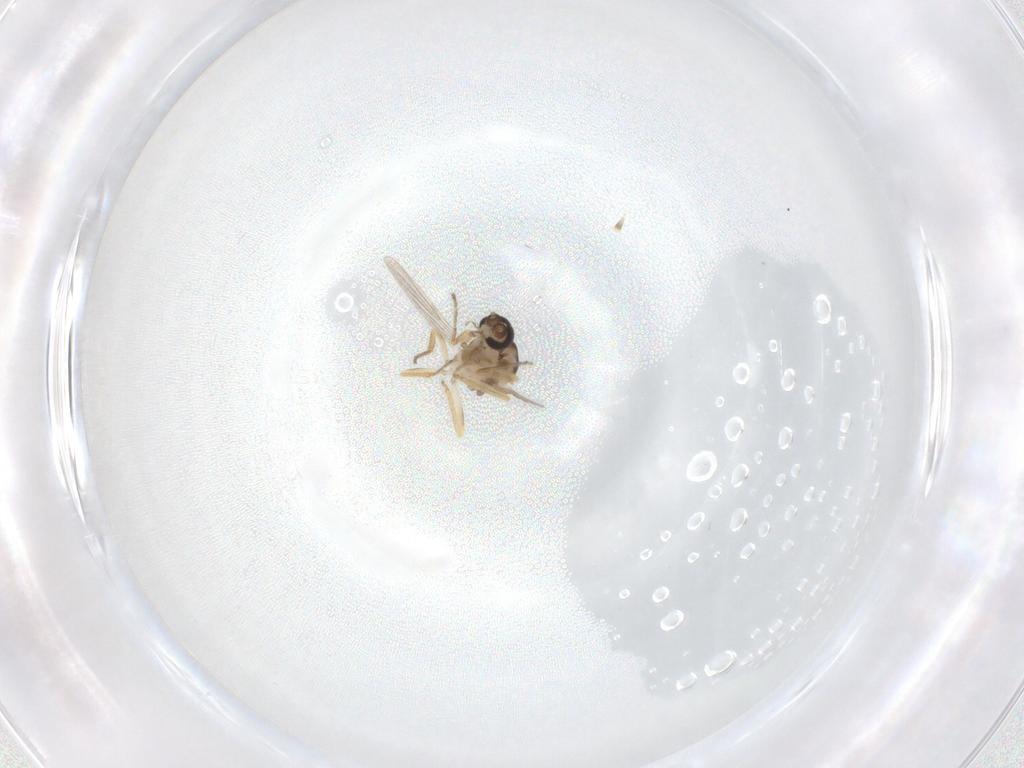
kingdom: Animalia
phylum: Arthropoda
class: Insecta
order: Diptera
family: Ceratopogonidae
